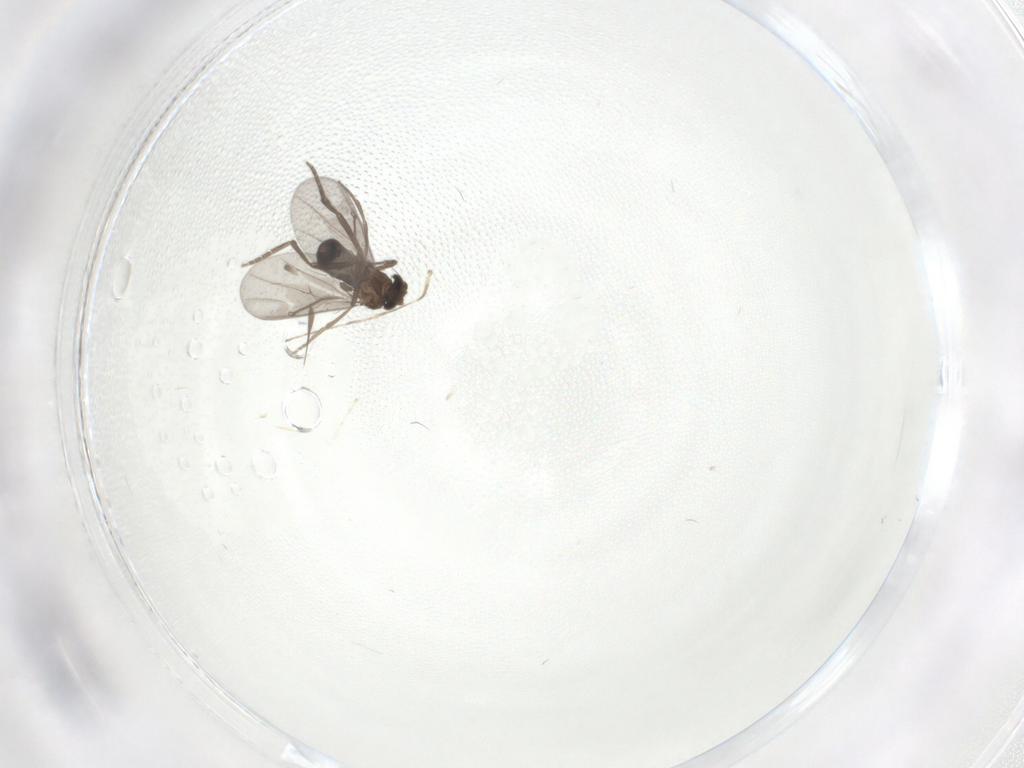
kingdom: Animalia
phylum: Arthropoda
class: Insecta
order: Diptera
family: Cecidomyiidae
